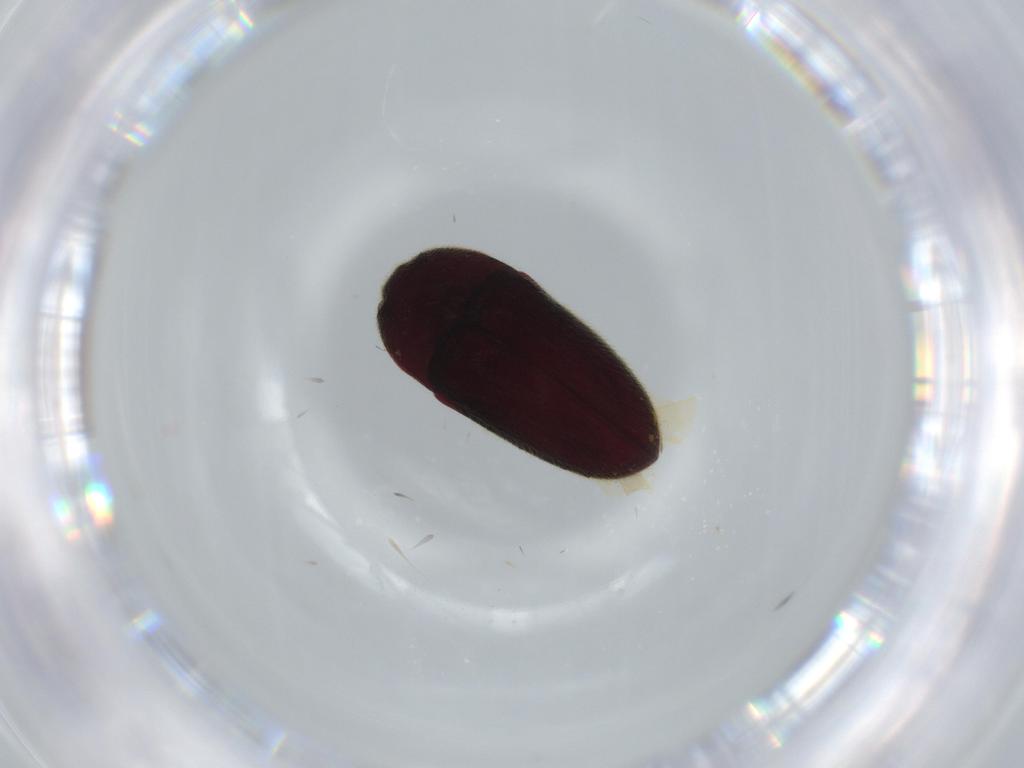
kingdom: Animalia
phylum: Arthropoda
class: Insecta
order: Coleoptera
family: Throscidae
